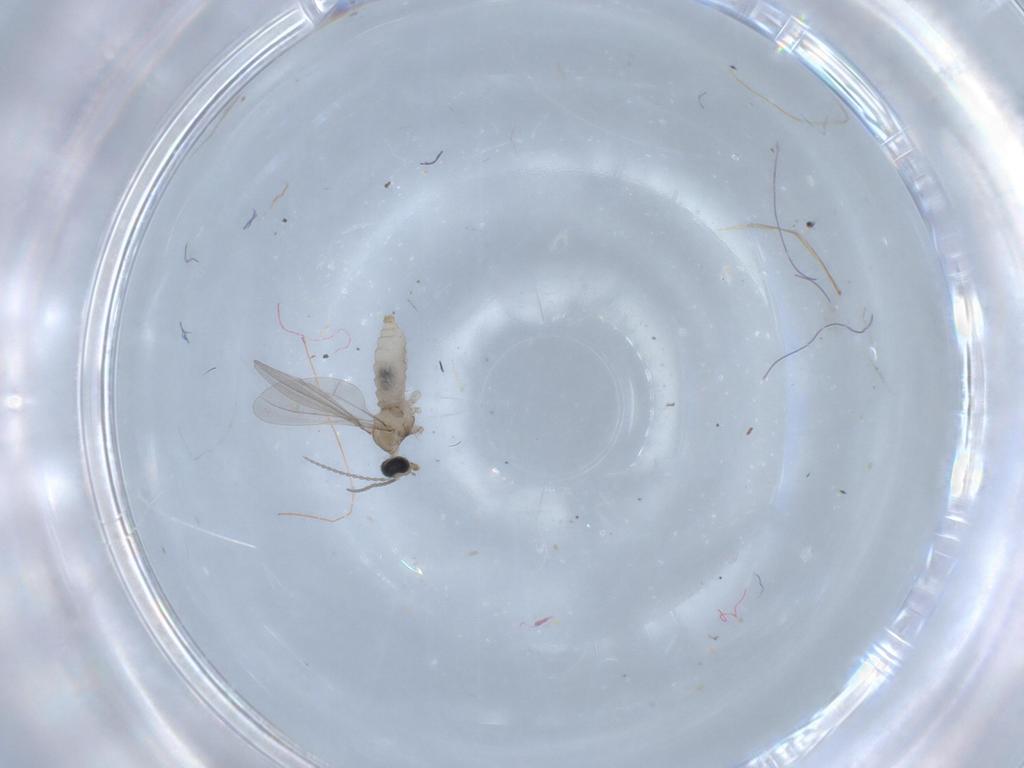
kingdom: Animalia
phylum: Arthropoda
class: Insecta
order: Diptera
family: Cecidomyiidae
